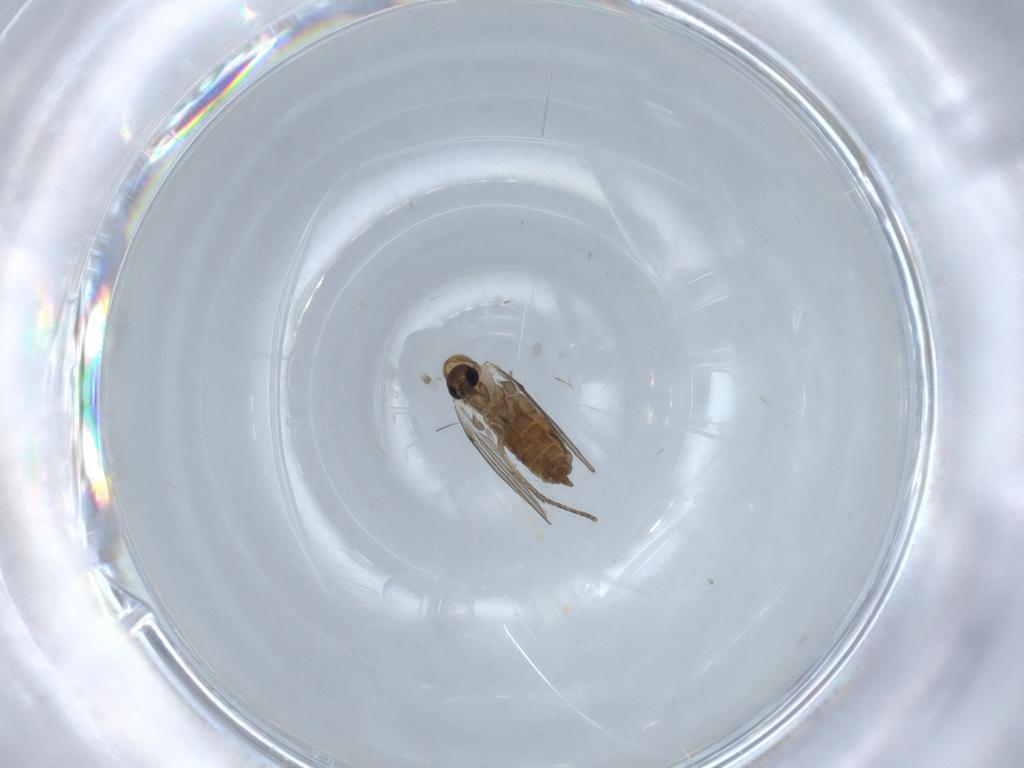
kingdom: Animalia
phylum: Arthropoda
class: Insecta
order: Diptera
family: Psychodidae
